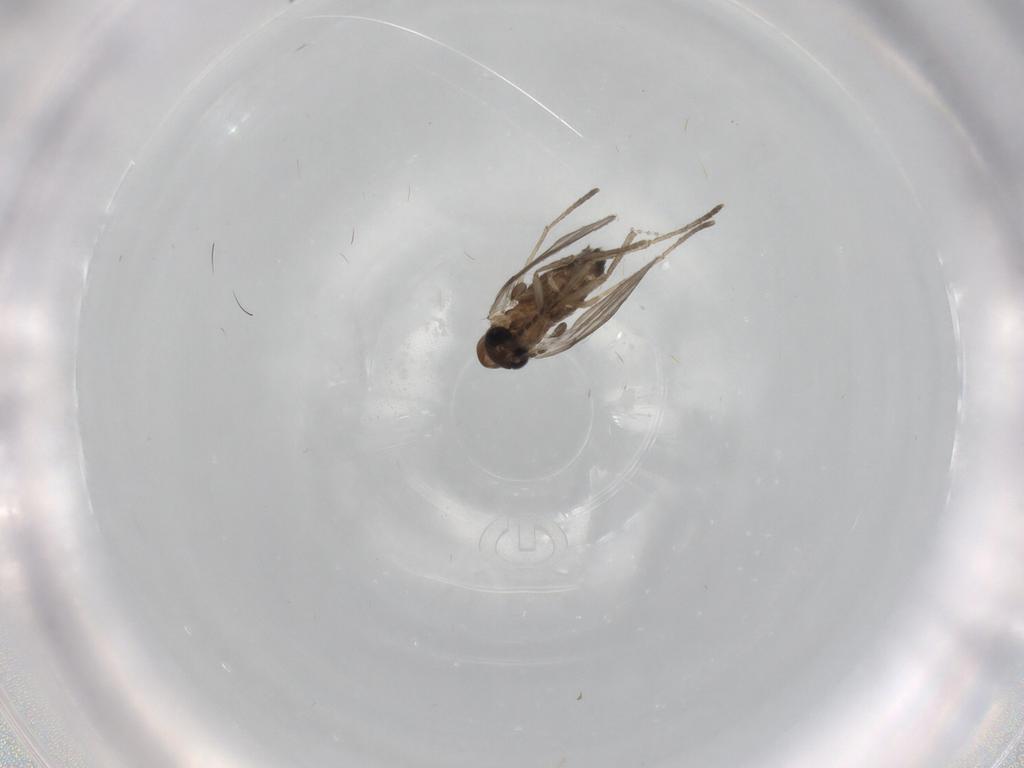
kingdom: Animalia
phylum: Arthropoda
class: Insecta
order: Diptera
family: Chironomidae
